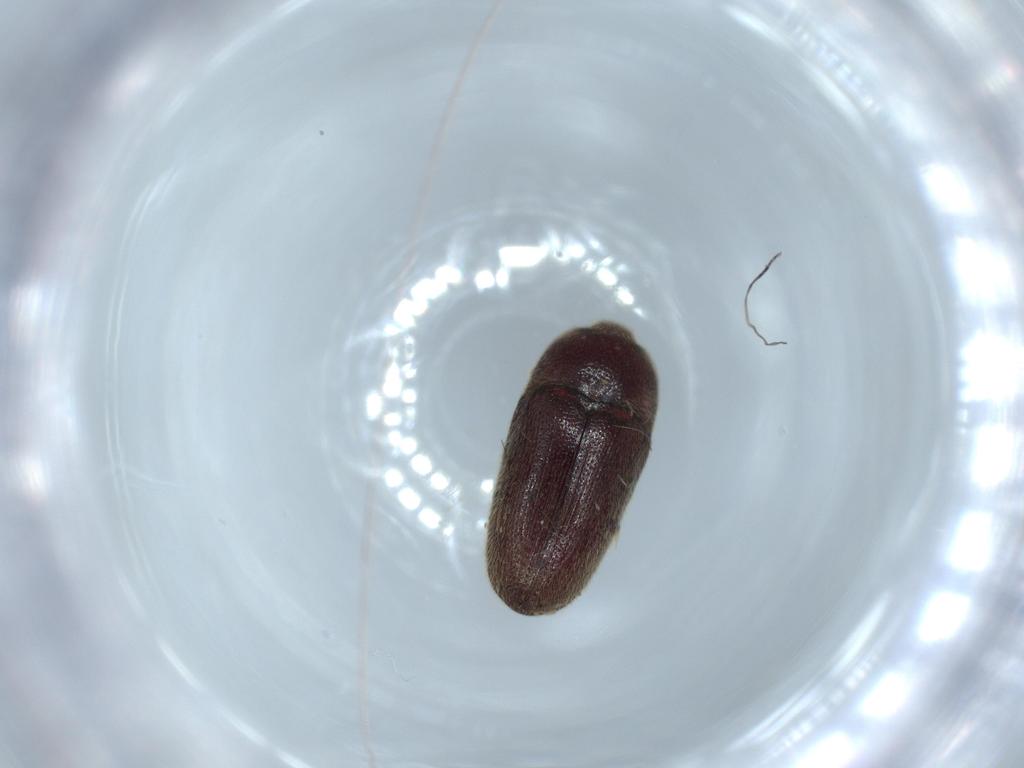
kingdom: Animalia
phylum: Arthropoda
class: Insecta
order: Coleoptera
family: Throscidae
